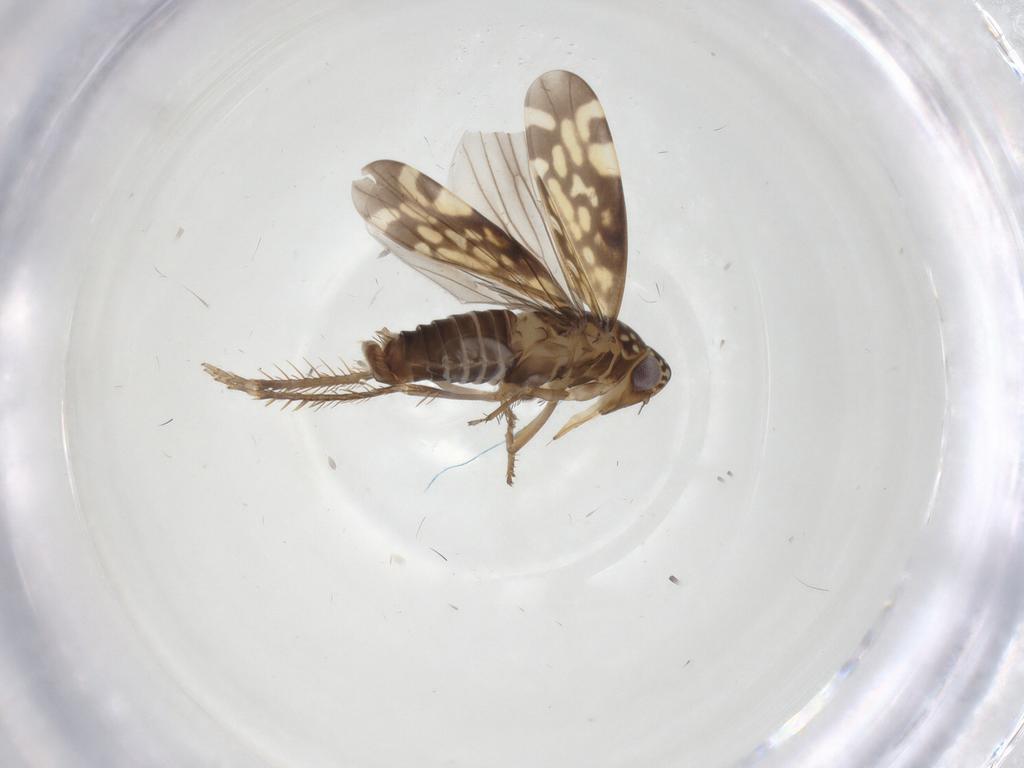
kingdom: Animalia
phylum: Arthropoda
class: Insecta
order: Hemiptera
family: Cicadellidae
